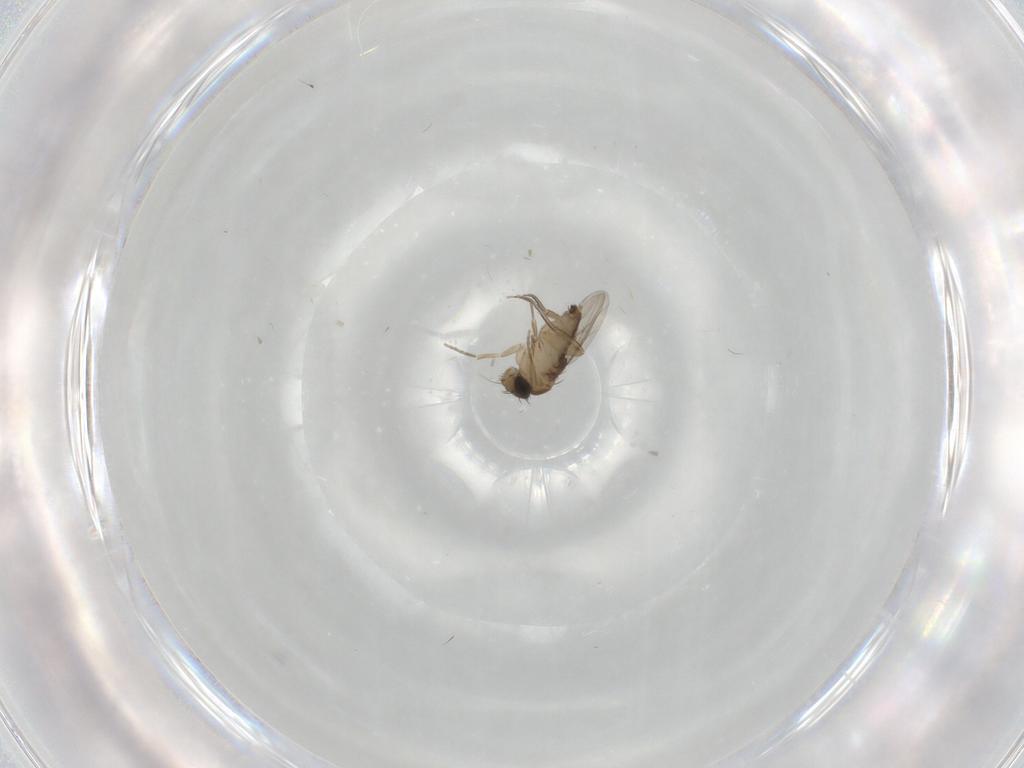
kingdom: Animalia
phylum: Arthropoda
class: Insecta
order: Diptera
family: Phoridae
